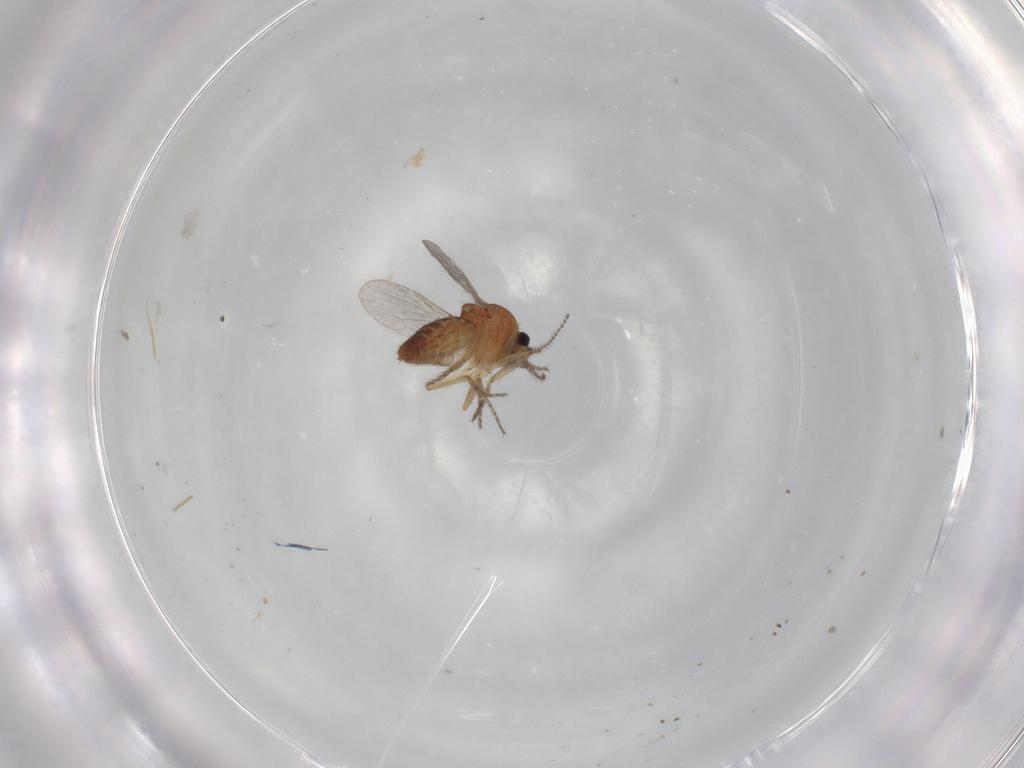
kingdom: Animalia
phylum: Arthropoda
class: Insecta
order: Diptera
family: Ceratopogonidae
